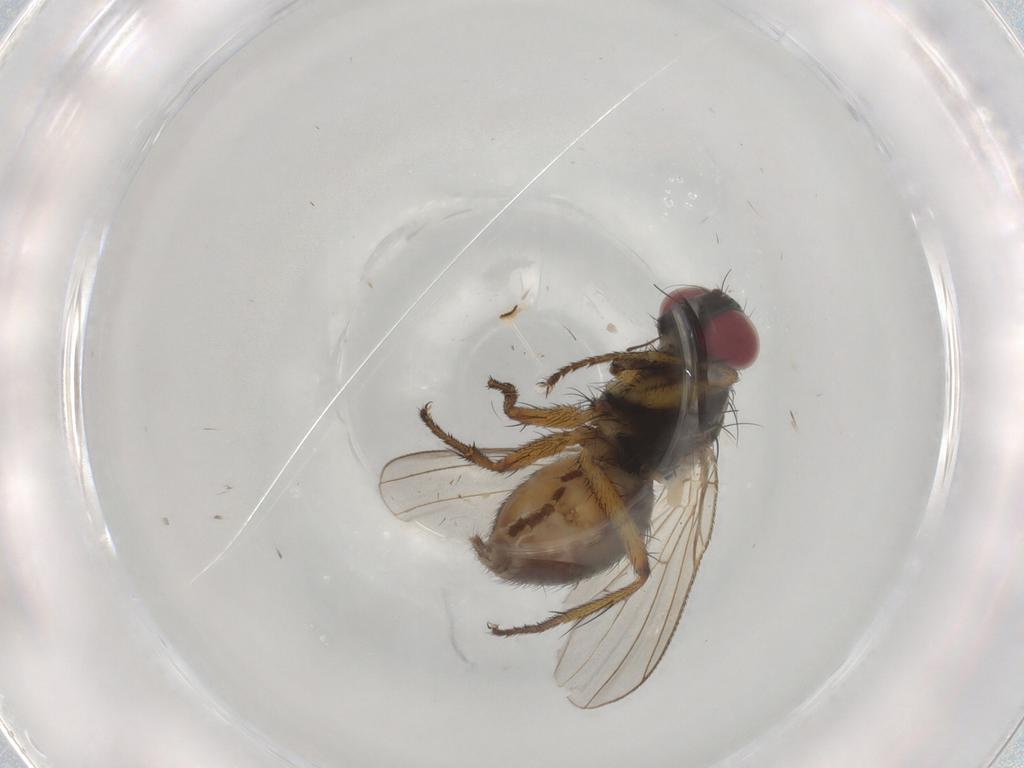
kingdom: Animalia
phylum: Arthropoda
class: Insecta
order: Diptera
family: Muscidae
